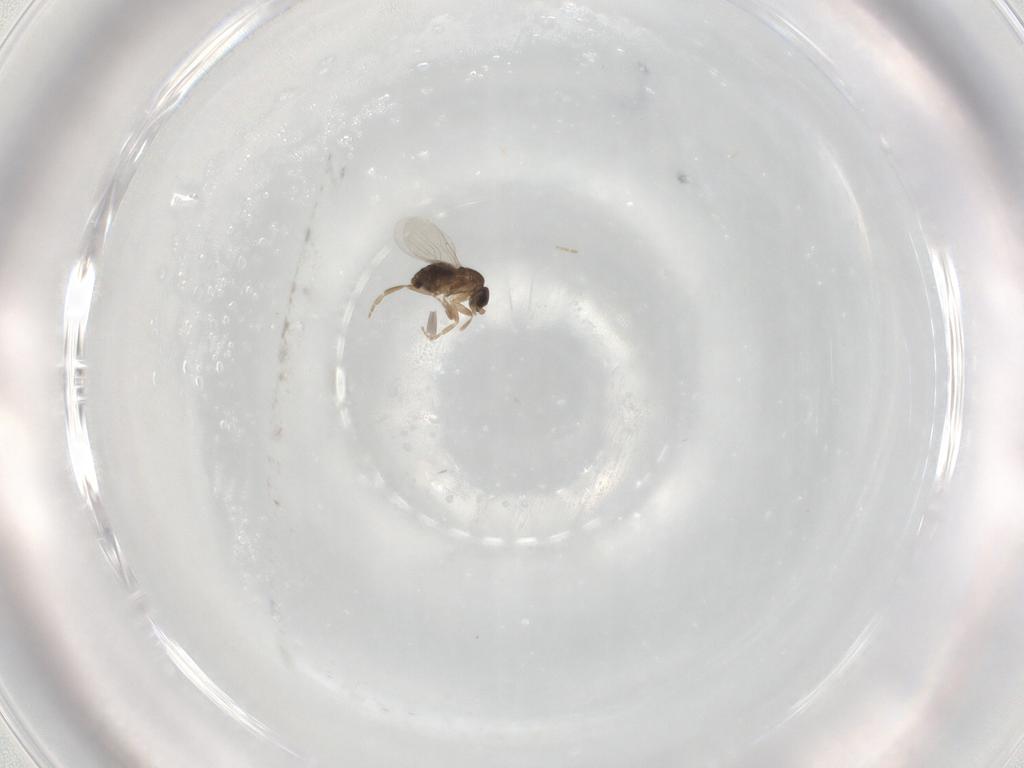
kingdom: Animalia
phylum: Arthropoda
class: Insecta
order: Diptera
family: Phoridae
